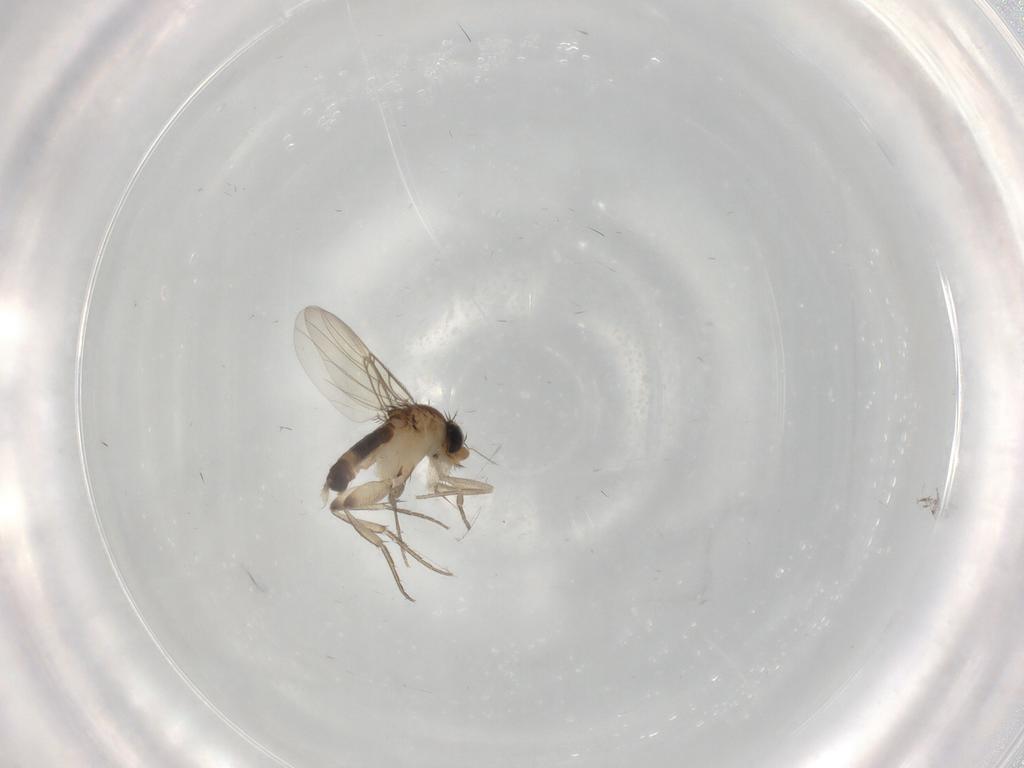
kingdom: Animalia
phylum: Arthropoda
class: Insecta
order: Diptera
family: Phoridae
